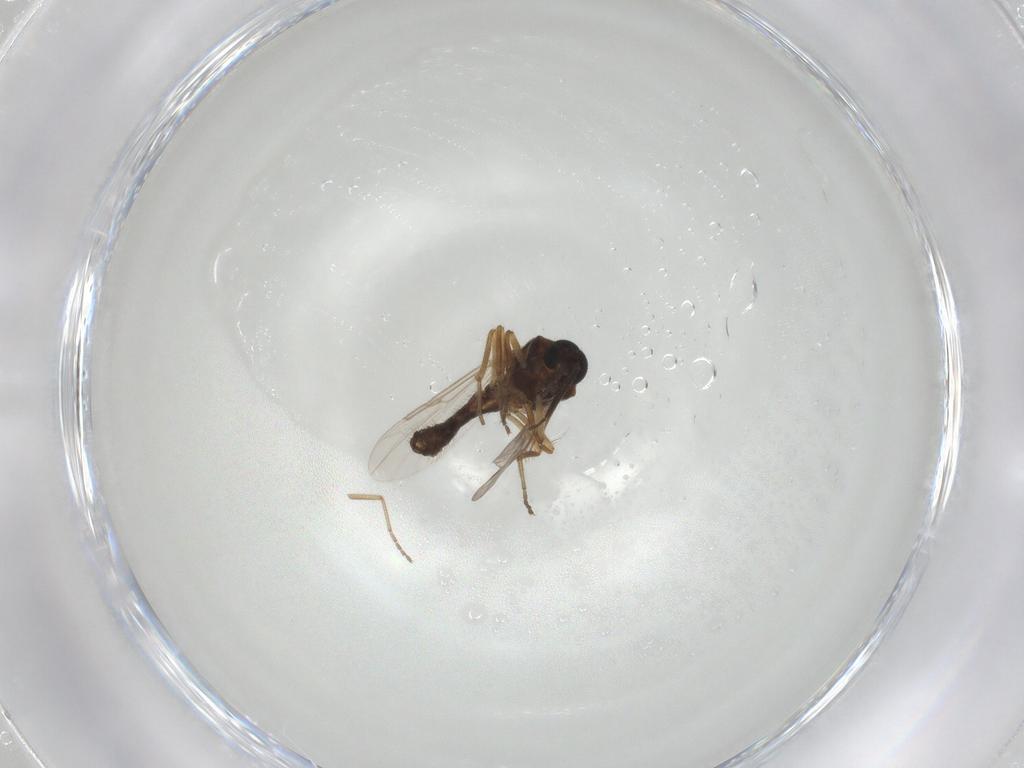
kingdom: Animalia
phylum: Arthropoda
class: Insecta
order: Diptera
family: Ceratopogonidae
